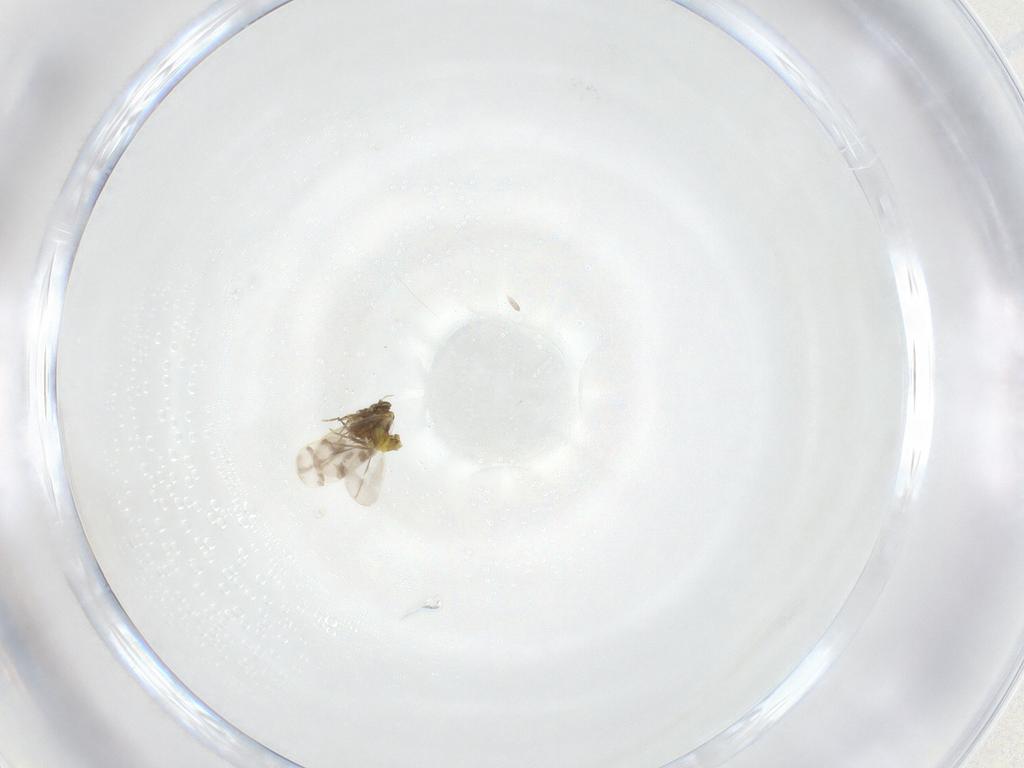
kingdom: Animalia
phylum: Arthropoda
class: Insecta
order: Hemiptera
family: Aleyrodidae
